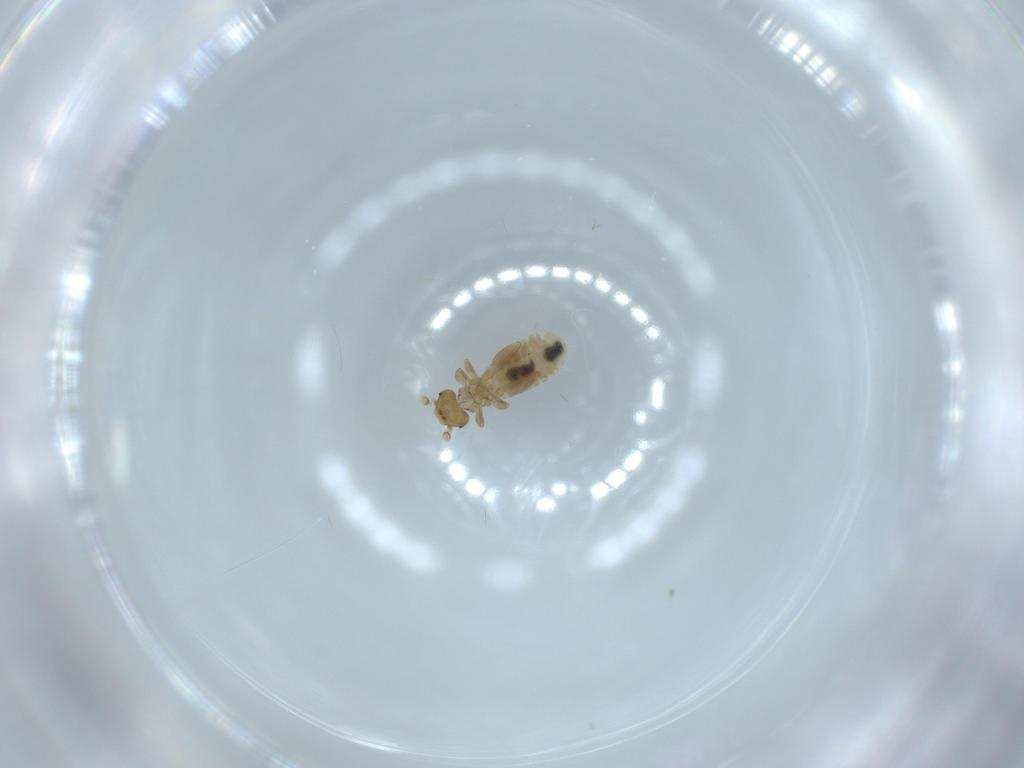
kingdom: Animalia
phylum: Arthropoda
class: Insecta
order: Psocodea
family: Liposcelididae
